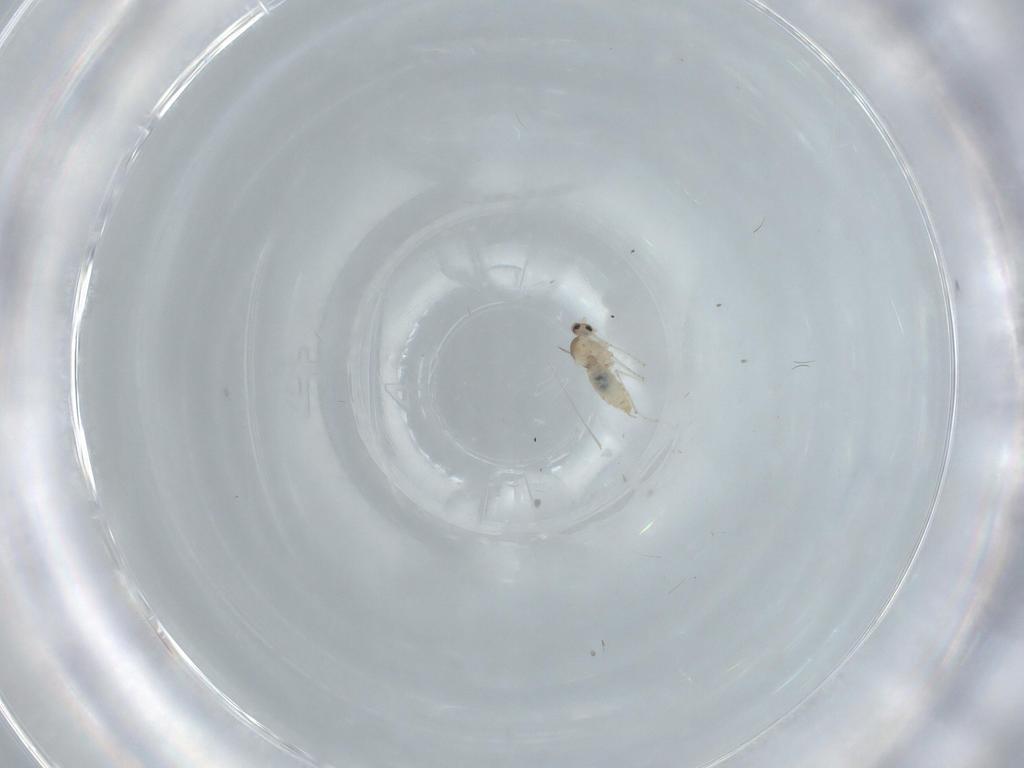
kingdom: Animalia
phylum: Arthropoda
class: Insecta
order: Diptera
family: Cecidomyiidae
